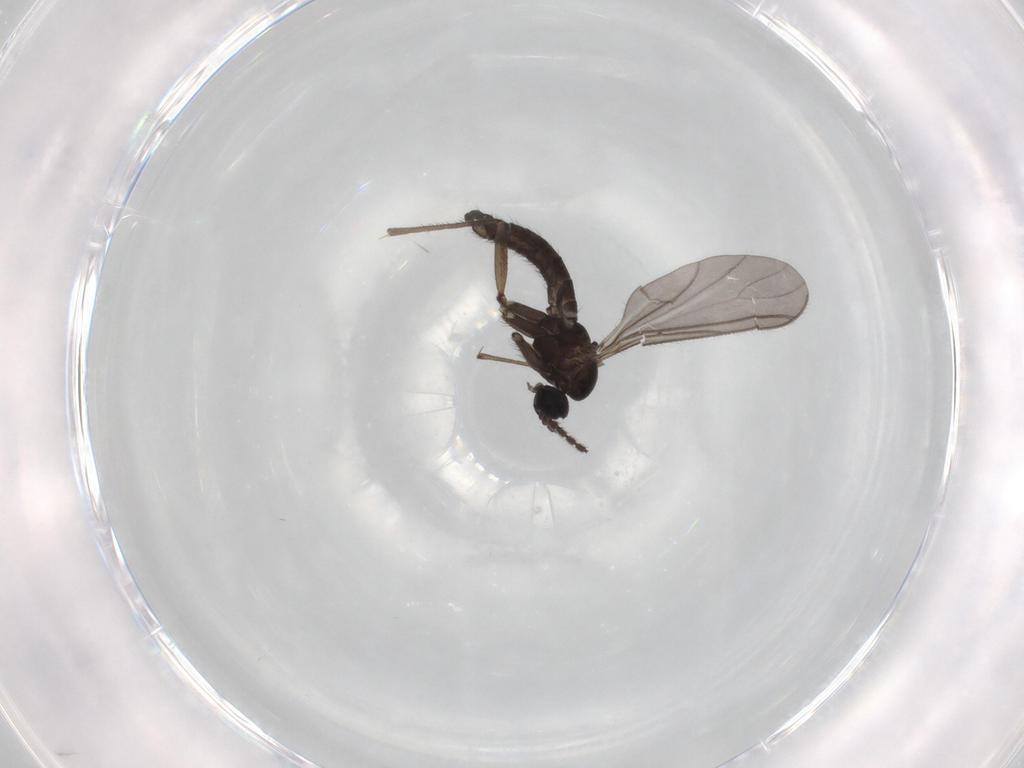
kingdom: Animalia
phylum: Arthropoda
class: Insecta
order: Diptera
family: Sciaridae
